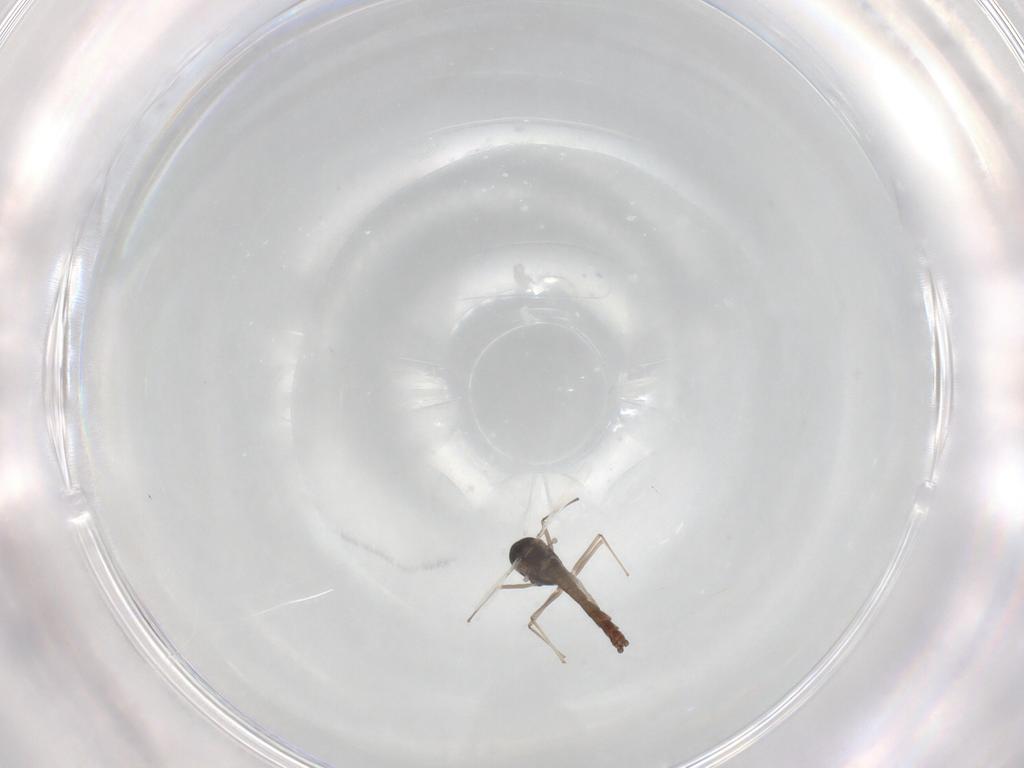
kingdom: Animalia
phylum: Arthropoda
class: Insecta
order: Diptera
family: Chironomidae
